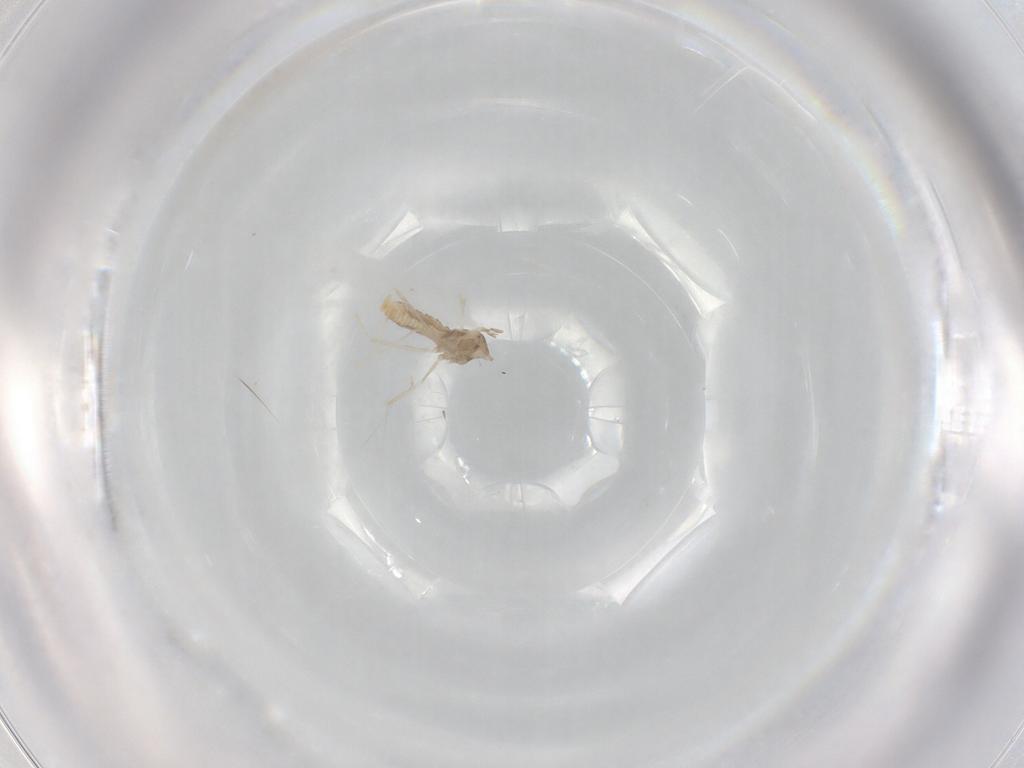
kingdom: Animalia
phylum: Arthropoda
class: Insecta
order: Diptera
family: Cecidomyiidae
